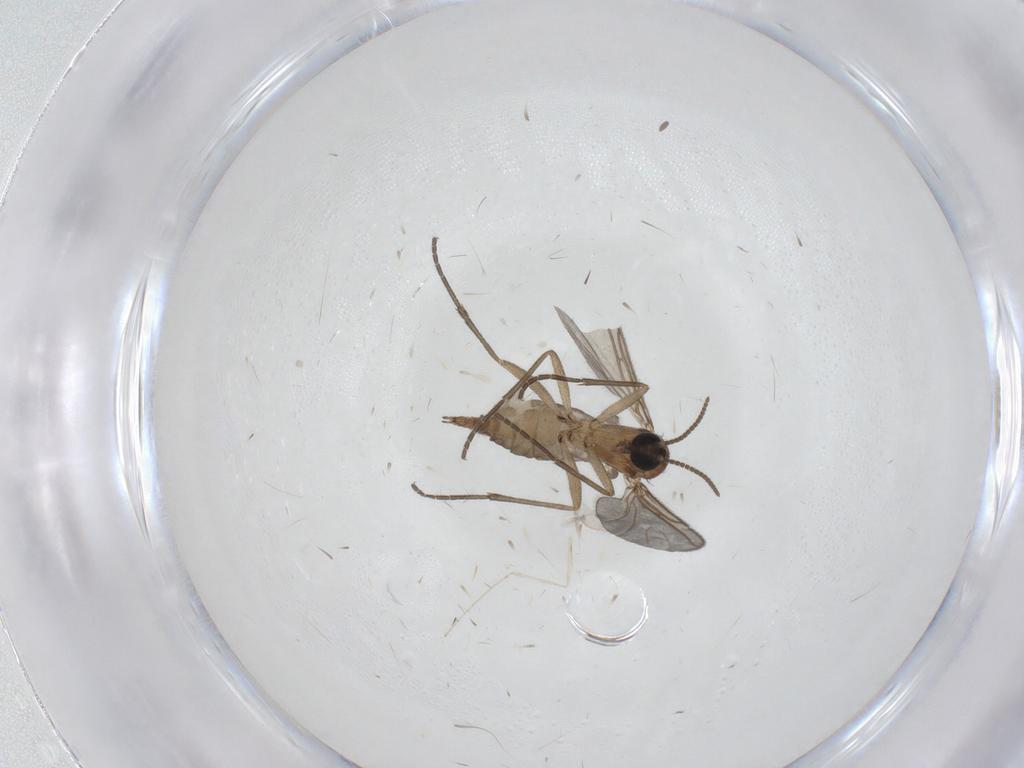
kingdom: Animalia
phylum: Arthropoda
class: Insecta
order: Diptera
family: Sciaridae
